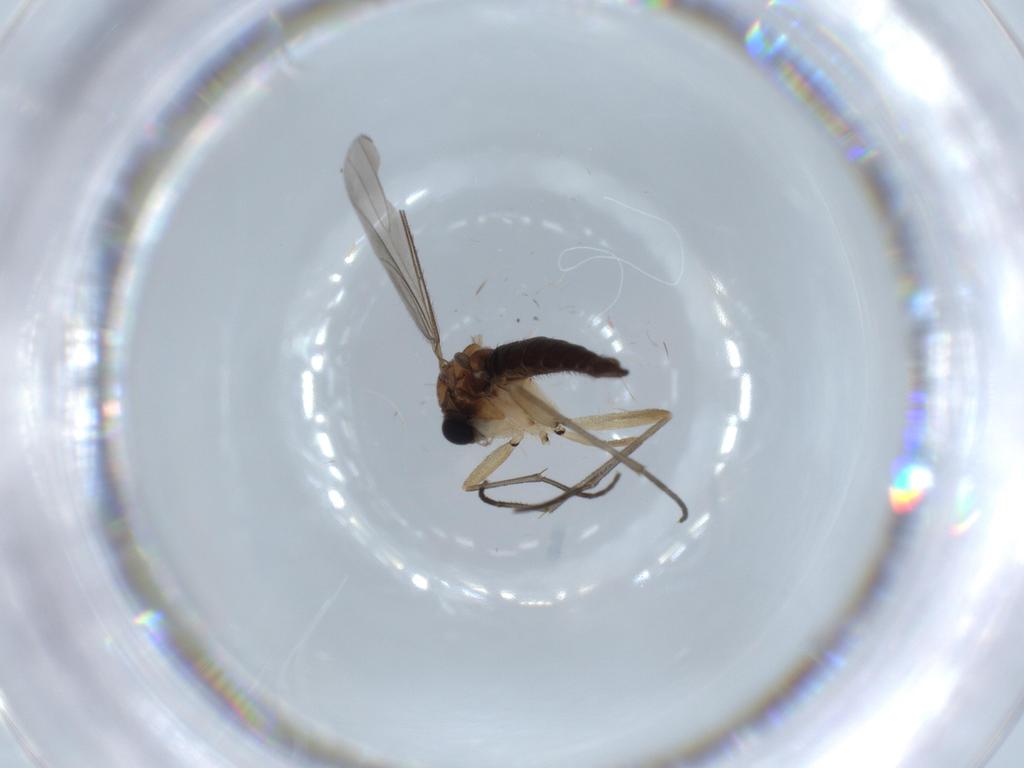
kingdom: Animalia
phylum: Arthropoda
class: Insecta
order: Diptera
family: Sciaridae
